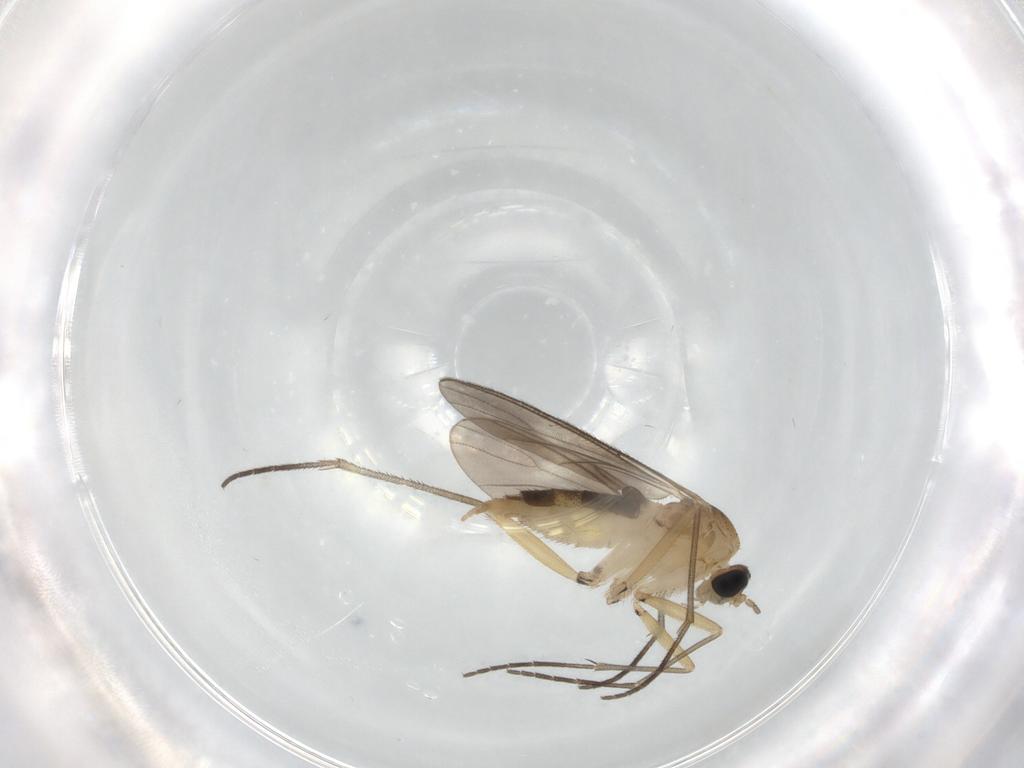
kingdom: Animalia
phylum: Arthropoda
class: Insecta
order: Diptera
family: Sciaridae
